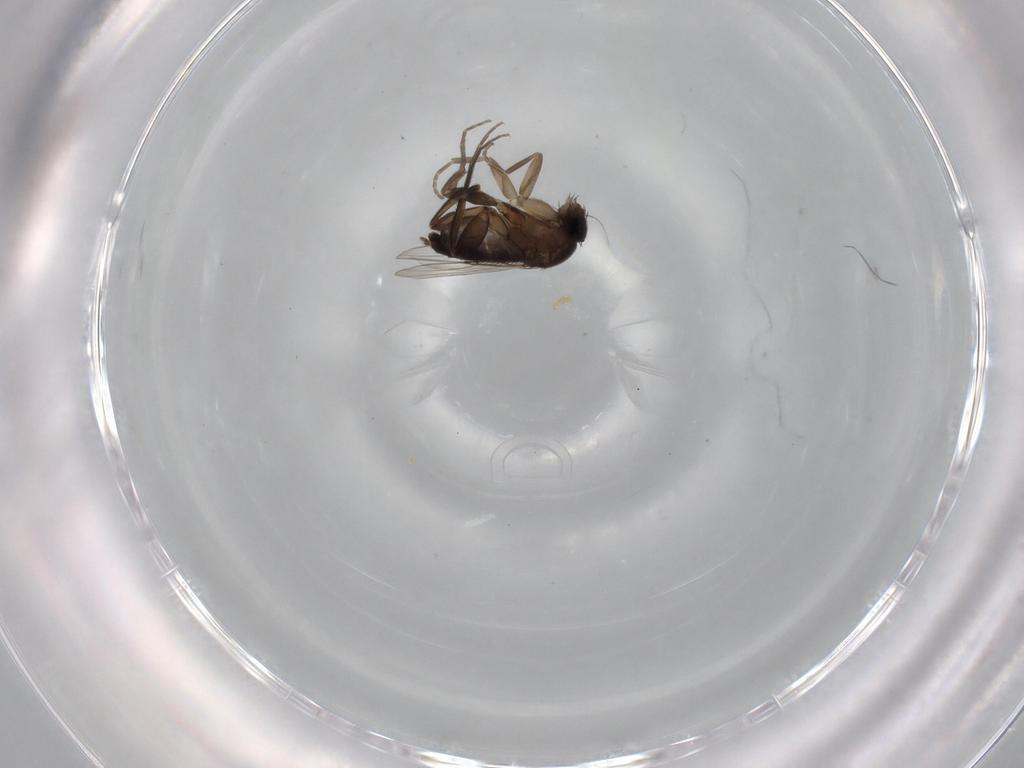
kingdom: Animalia
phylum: Arthropoda
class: Insecta
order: Diptera
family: Phoridae
